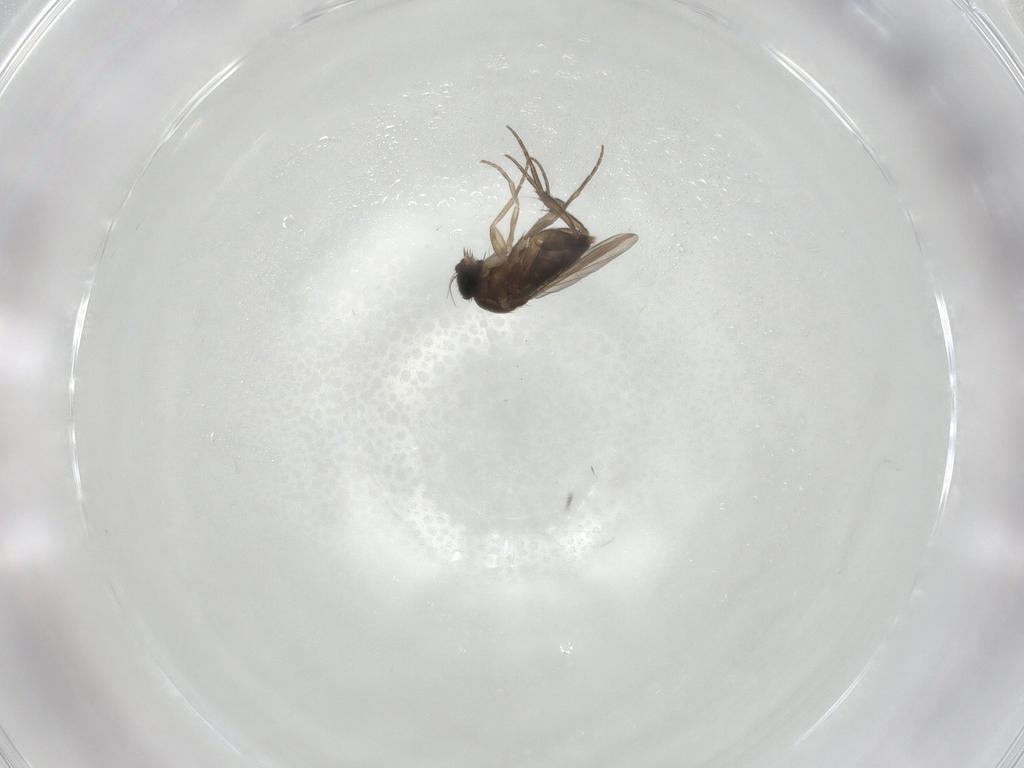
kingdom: Animalia
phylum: Arthropoda
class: Insecta
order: Diptera
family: Phoridae
